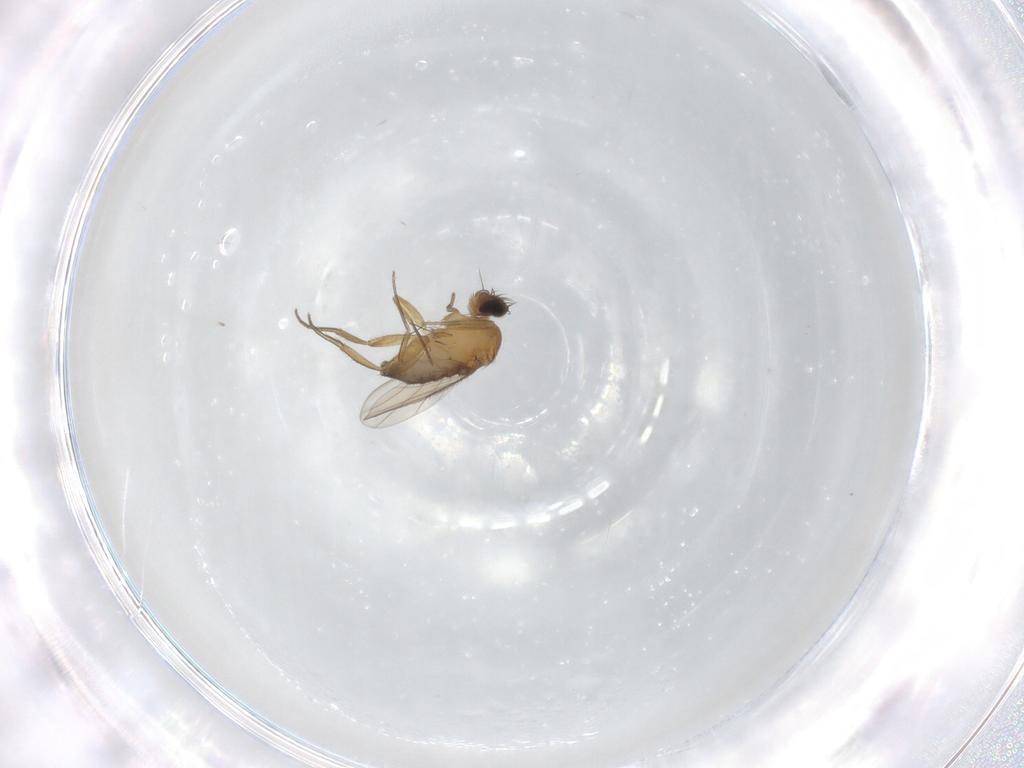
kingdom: Animalia
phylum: Arthropoda
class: Insecta
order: Diptera
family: Phoridae
